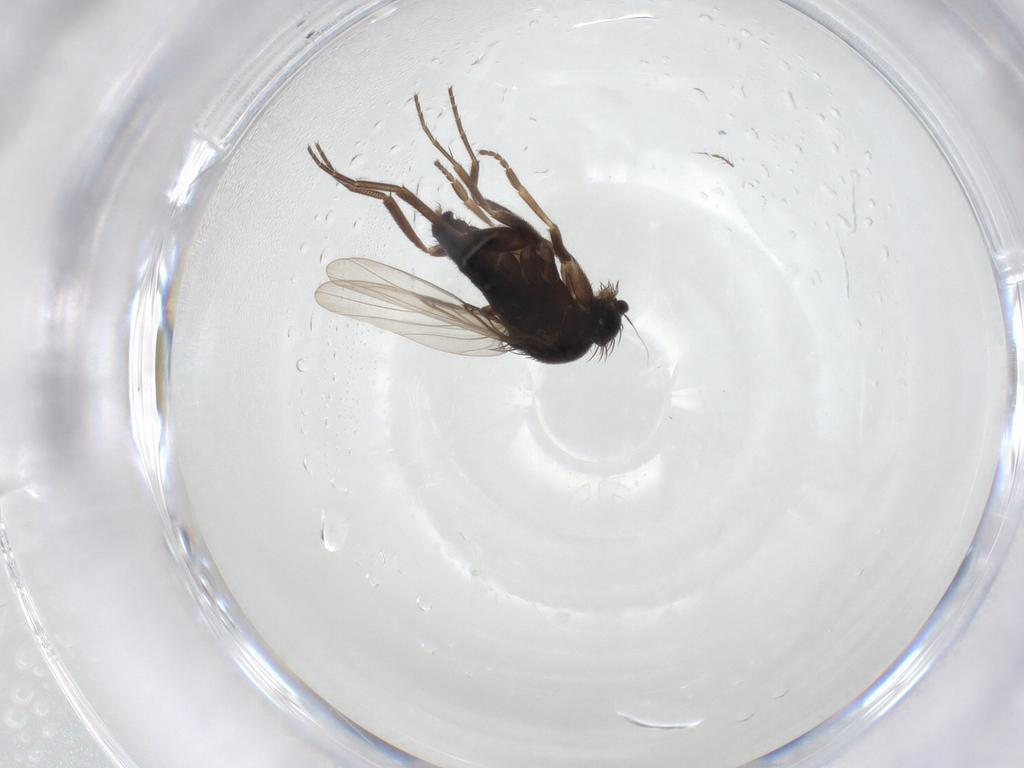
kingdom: Animalia
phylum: Arthropoda
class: Insecta
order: Diptera
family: Phoridae
